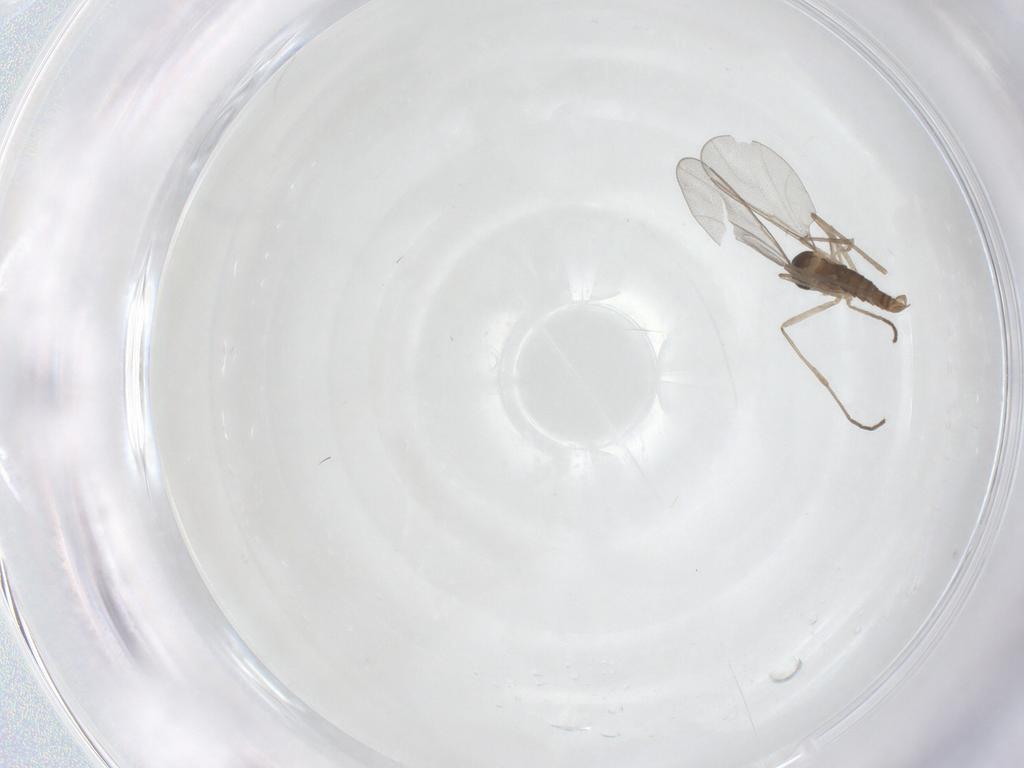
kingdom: Animalia
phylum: Arthropoda
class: Insecta
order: Diptera
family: Cecidomyiidae
